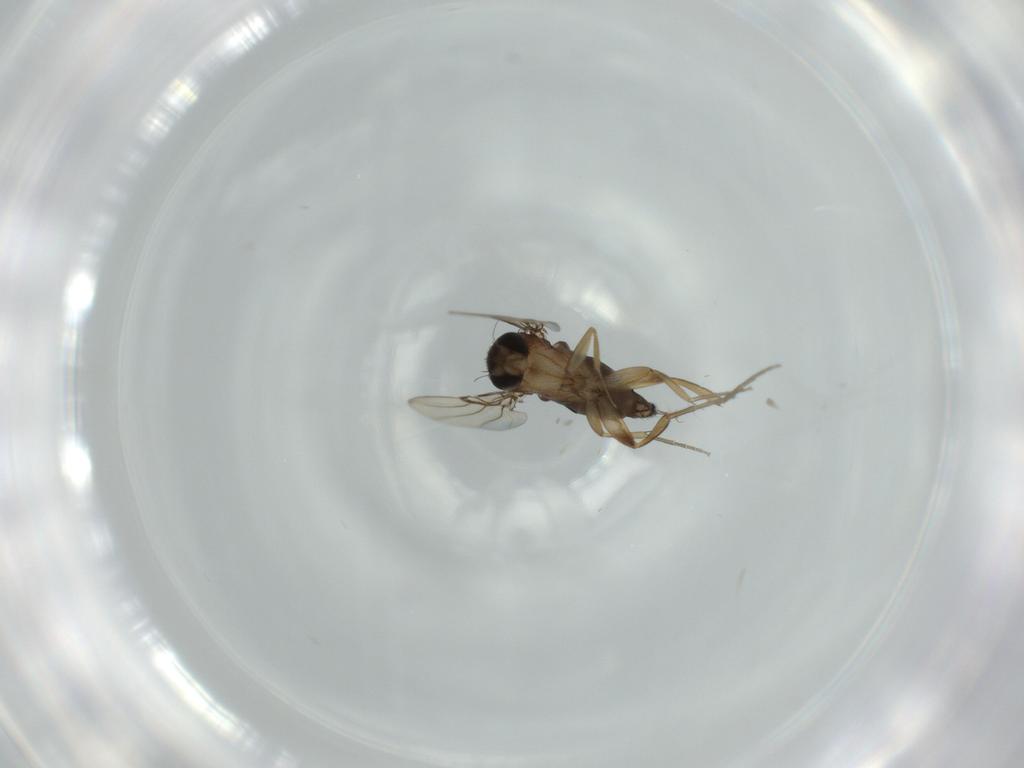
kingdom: Animalia
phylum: Arthropoda
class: Insecta
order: Diptera
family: Phoridae
